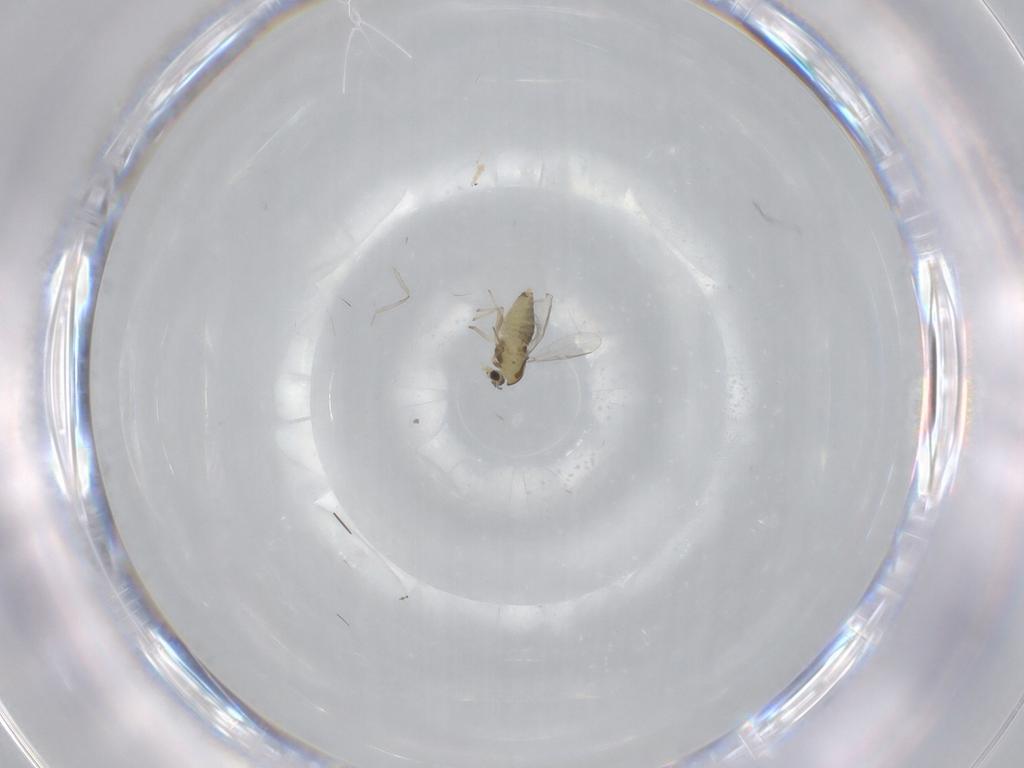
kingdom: Animalia
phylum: Arthropoda
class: Insecta
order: Diptera
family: Chironomidae
